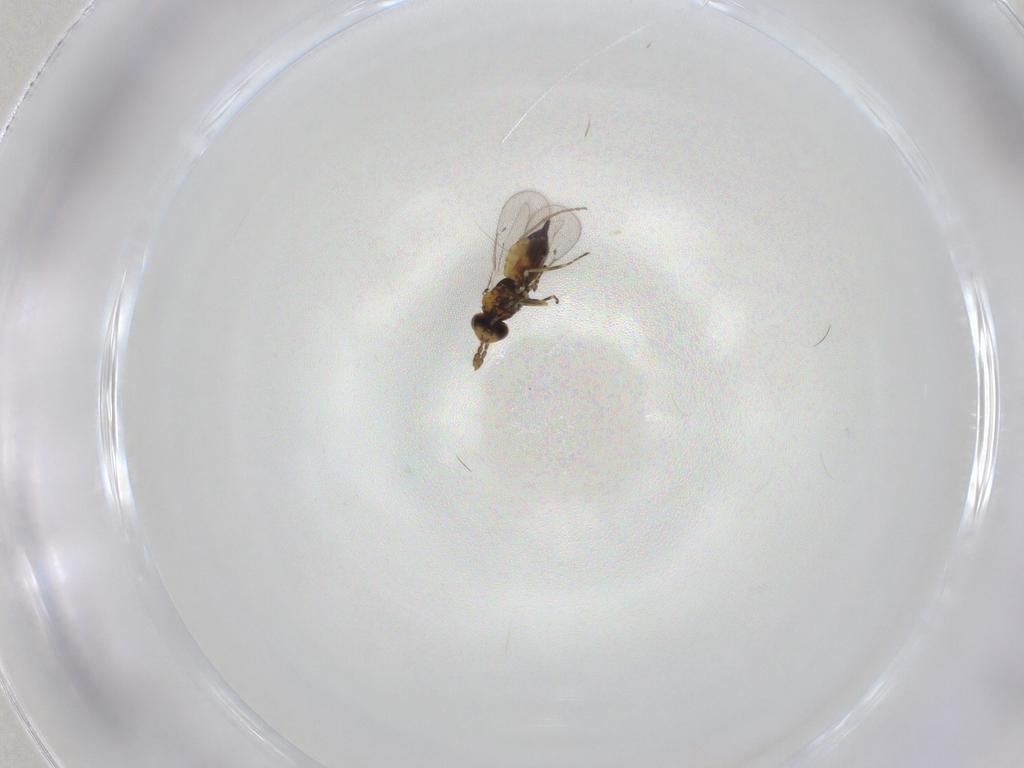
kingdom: Animalia
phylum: Arthropoda
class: Insecta
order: Hymenoptera
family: Eulophidae
